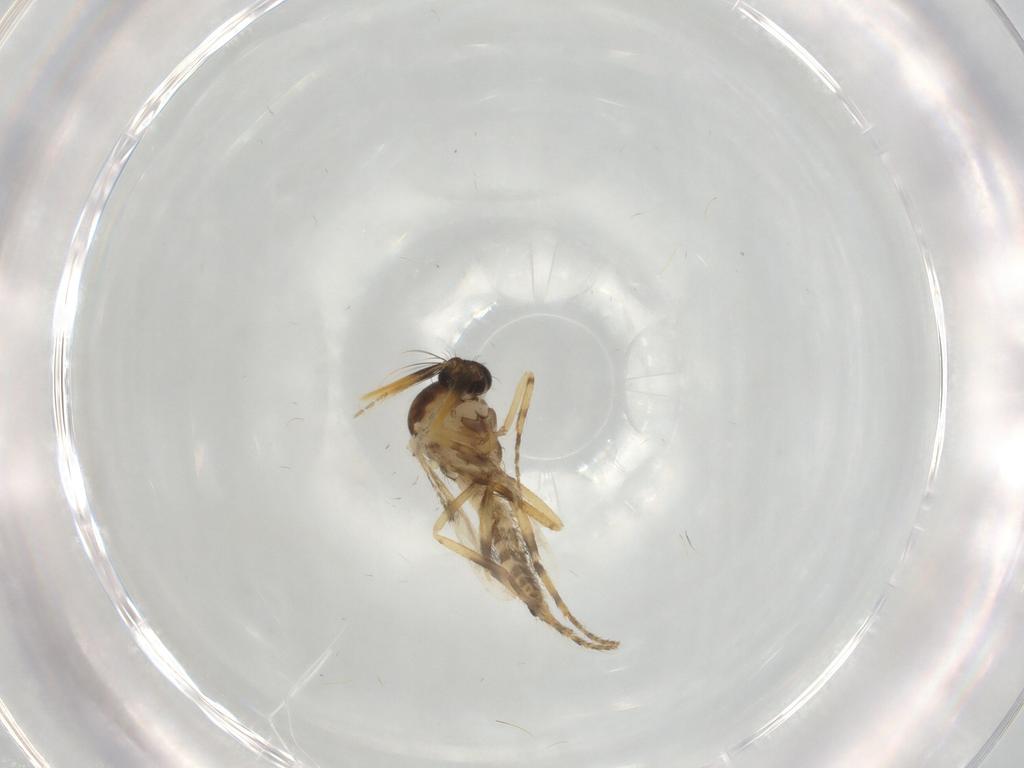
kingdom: Animalia
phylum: Arthropoda
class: Insecta
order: Diptera
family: Ceratopogonidae
